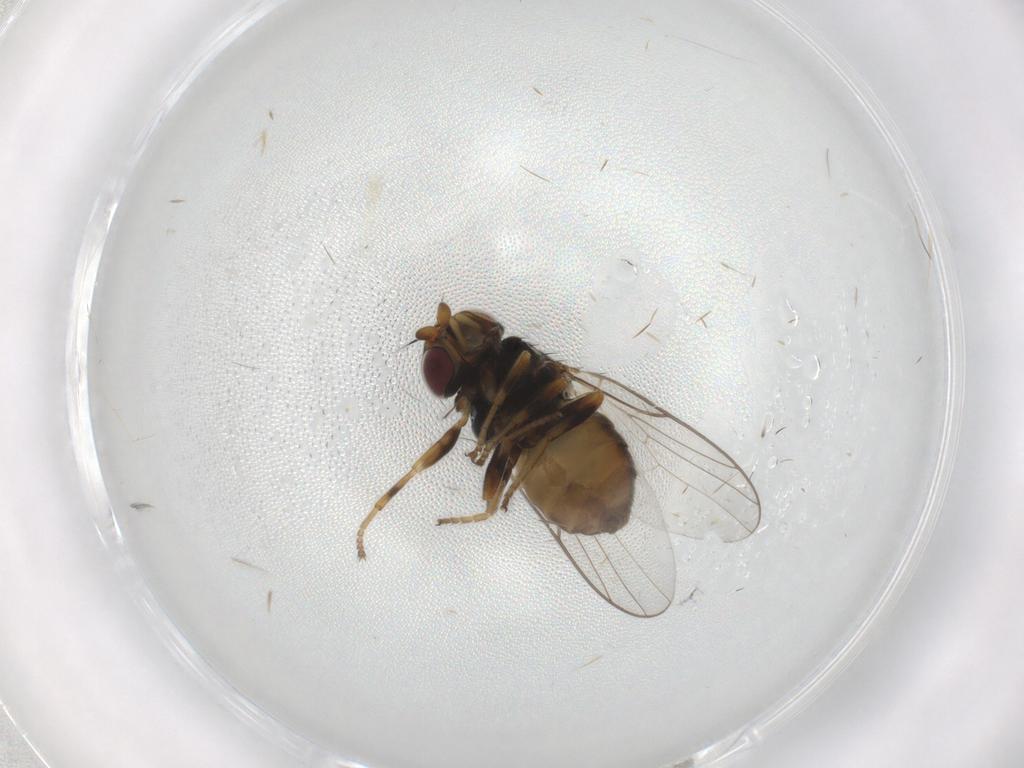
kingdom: Animalia
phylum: Arthropoda
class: Insecta
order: Diptera
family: Chloropidae
